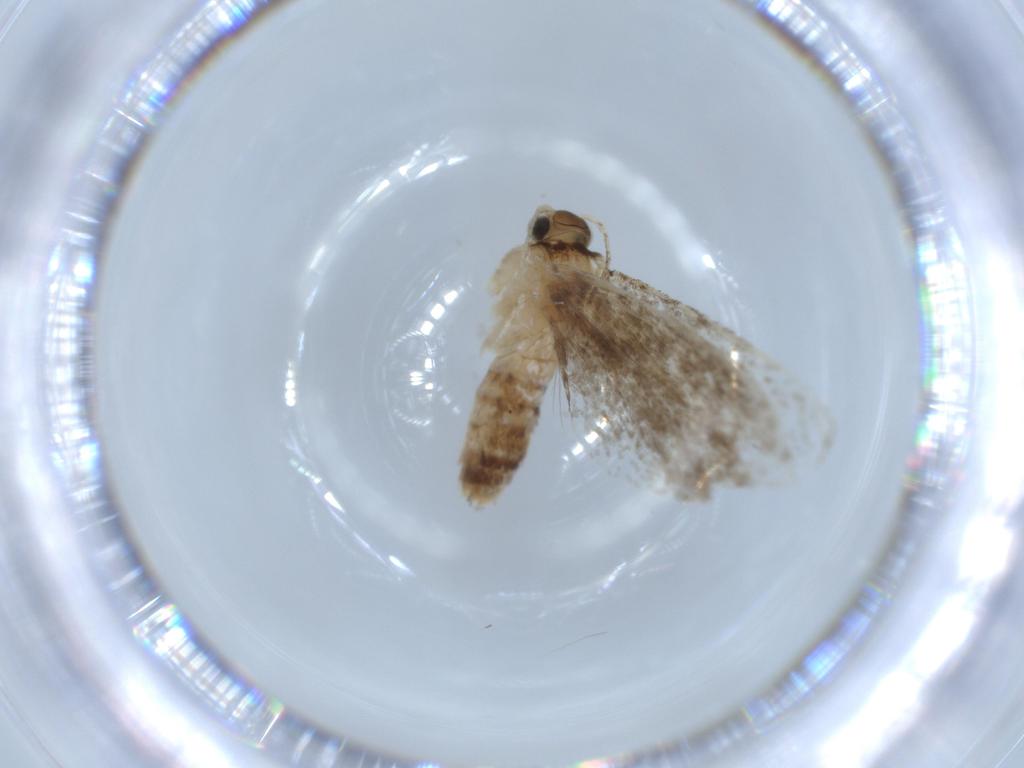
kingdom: Animalia
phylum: Arthropoda
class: Insecta
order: Lepidoptera
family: Tineidae
